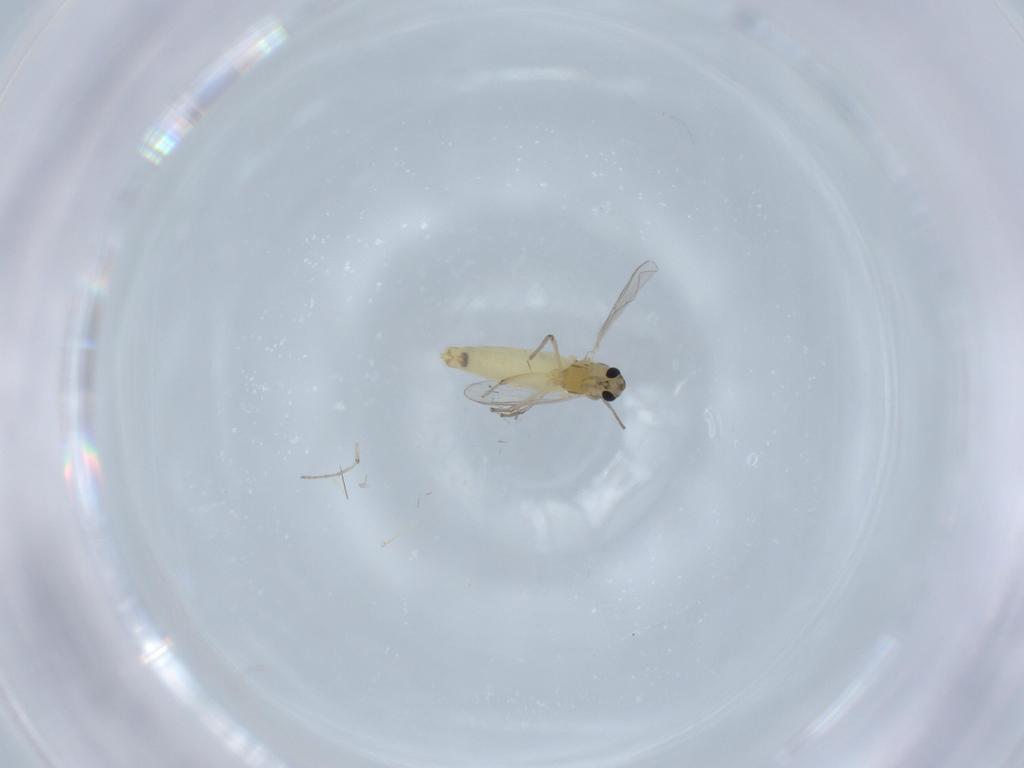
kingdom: Animalia
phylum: Arthropoda
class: Insecta
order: Diptera
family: Sciaridae
